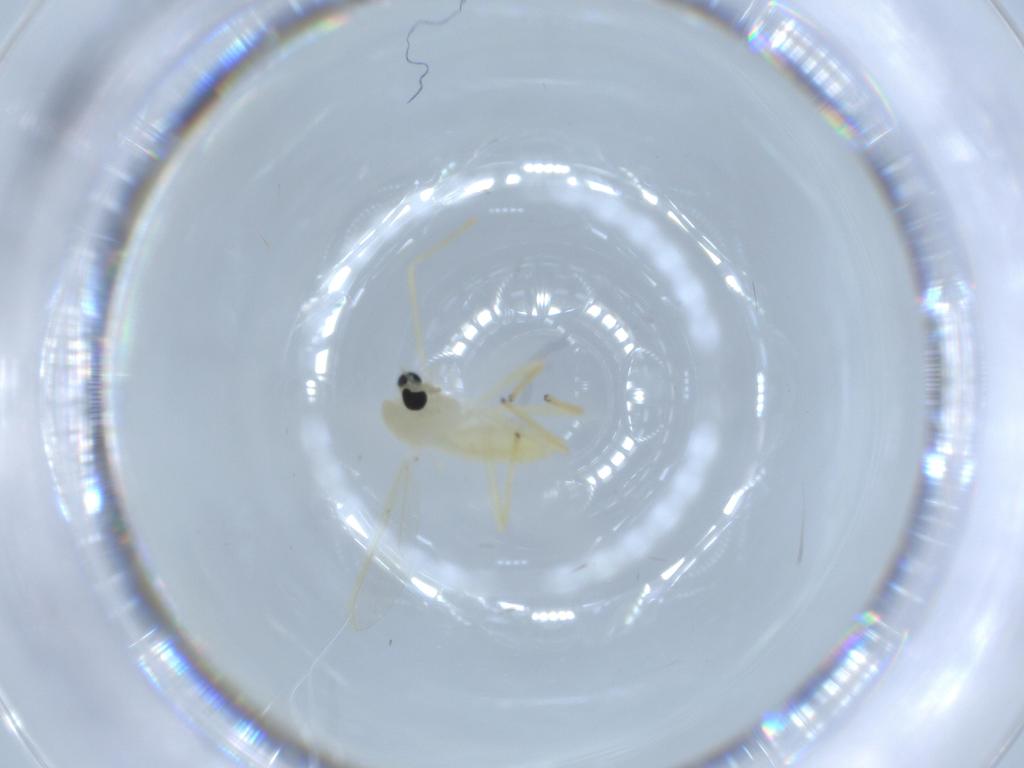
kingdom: Animalia
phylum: Arthropoda
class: Insecta
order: Diptera
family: Chironomidae
